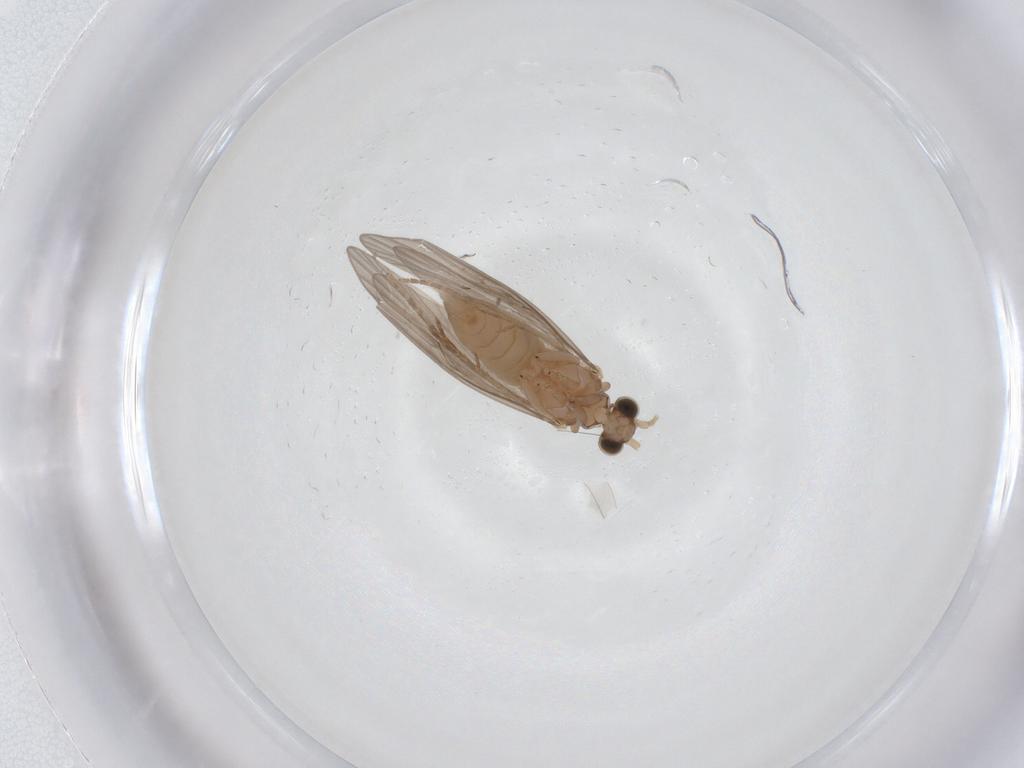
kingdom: Animalia
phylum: Arthropoda
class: Insecta
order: Trichoptera
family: Psychomyiidae
